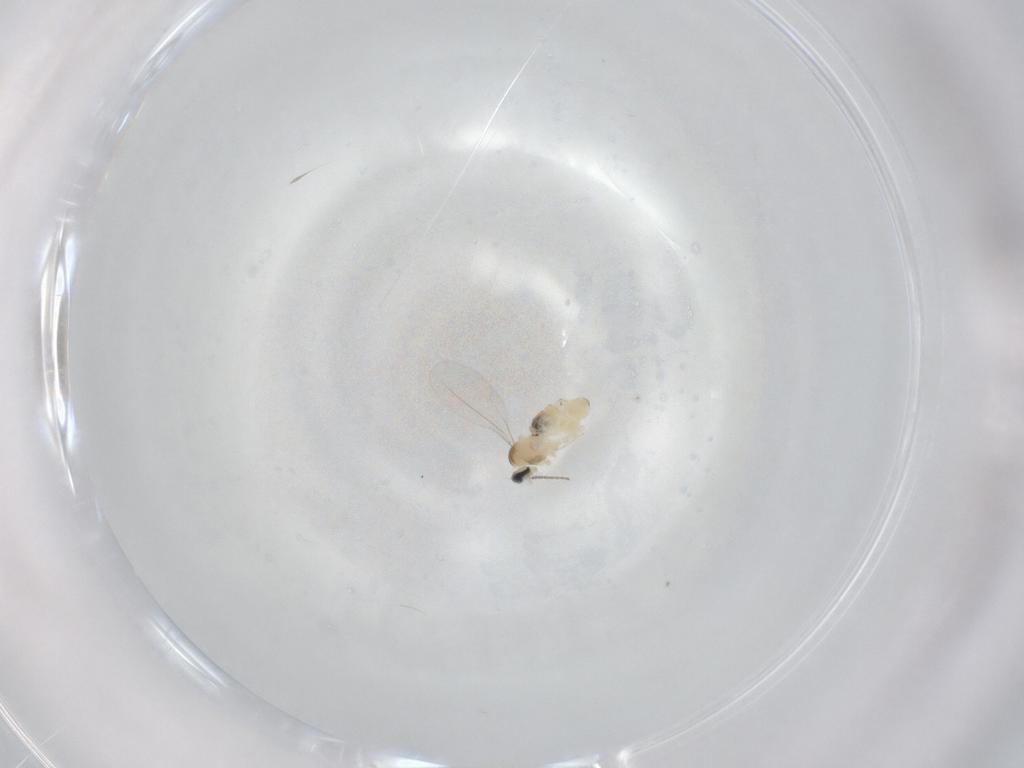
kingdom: Animalia
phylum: Arthropoda
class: Insecta
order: Diptera
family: Cecidomyiidae
